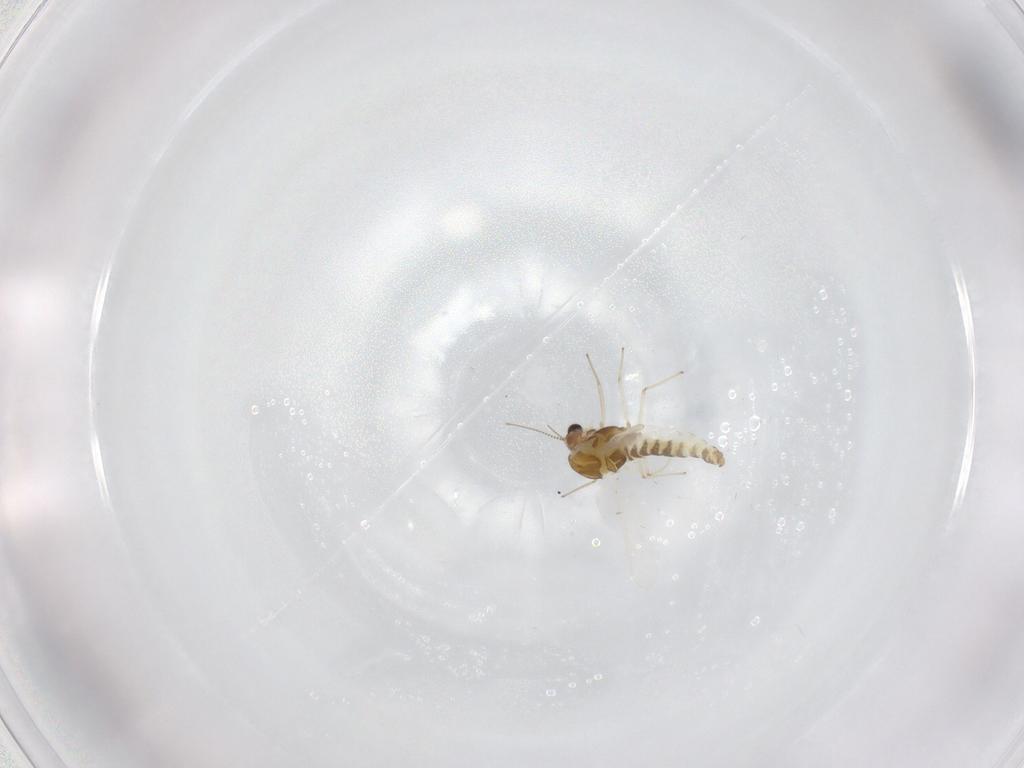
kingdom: Animalia
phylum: Arthropoda
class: Insecta
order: Diptera
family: Chironomidae
